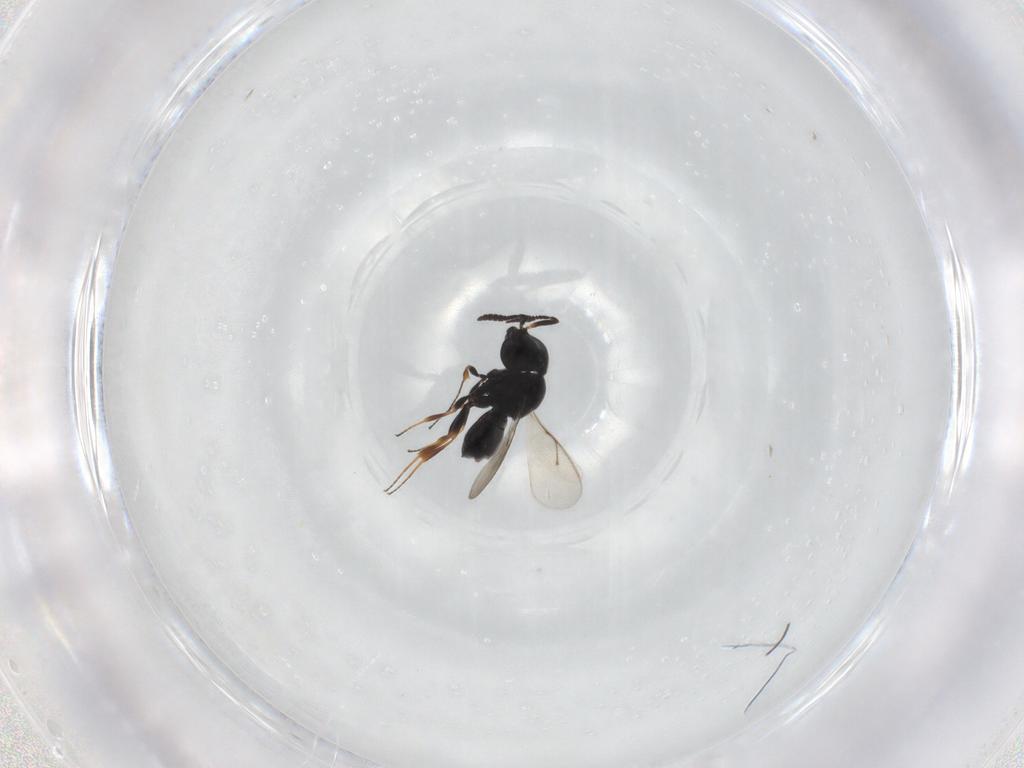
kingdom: Animalia
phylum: Arthropoda
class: Insecta
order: Hymenoptera
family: Scelionidae
